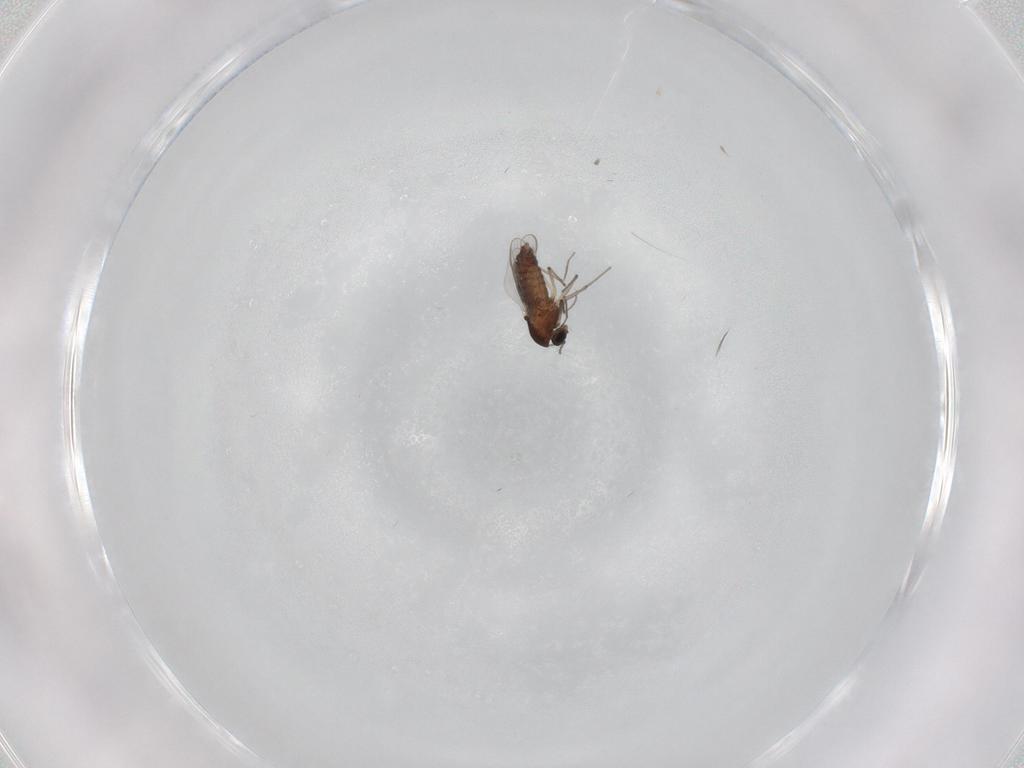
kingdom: Animalia
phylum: Arthropoda
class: Insecta
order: Diptera
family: Chironomidae
